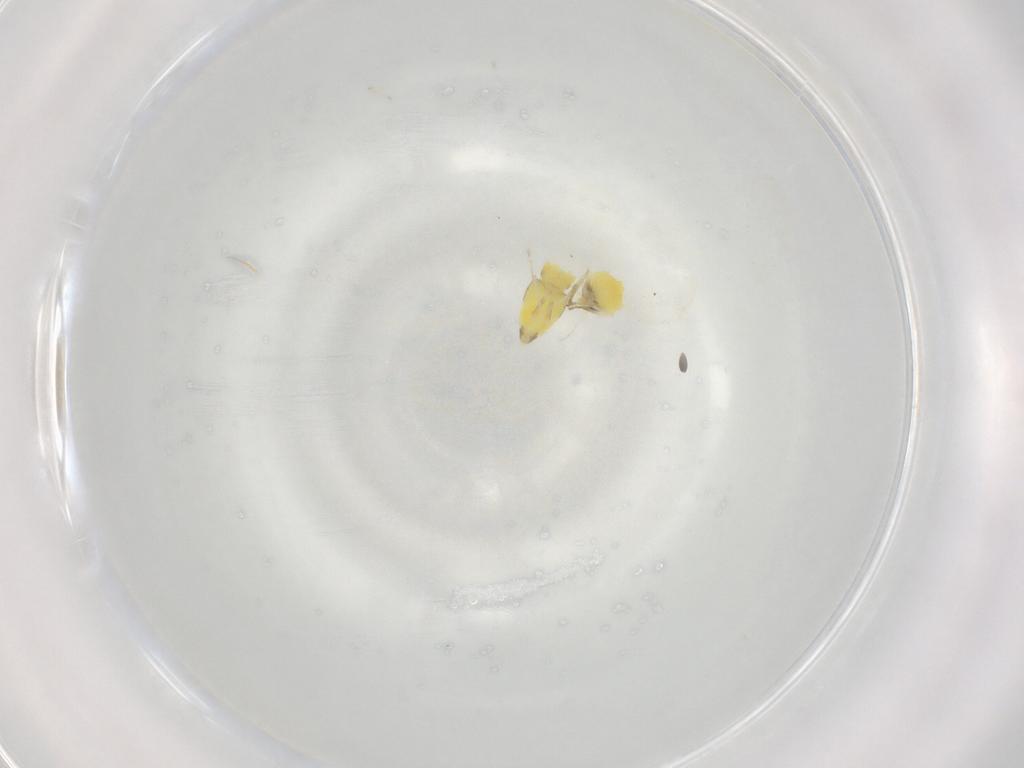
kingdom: Animalia
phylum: Arthropoda
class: Insecta
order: Hemiptera
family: Aleyrodidae
